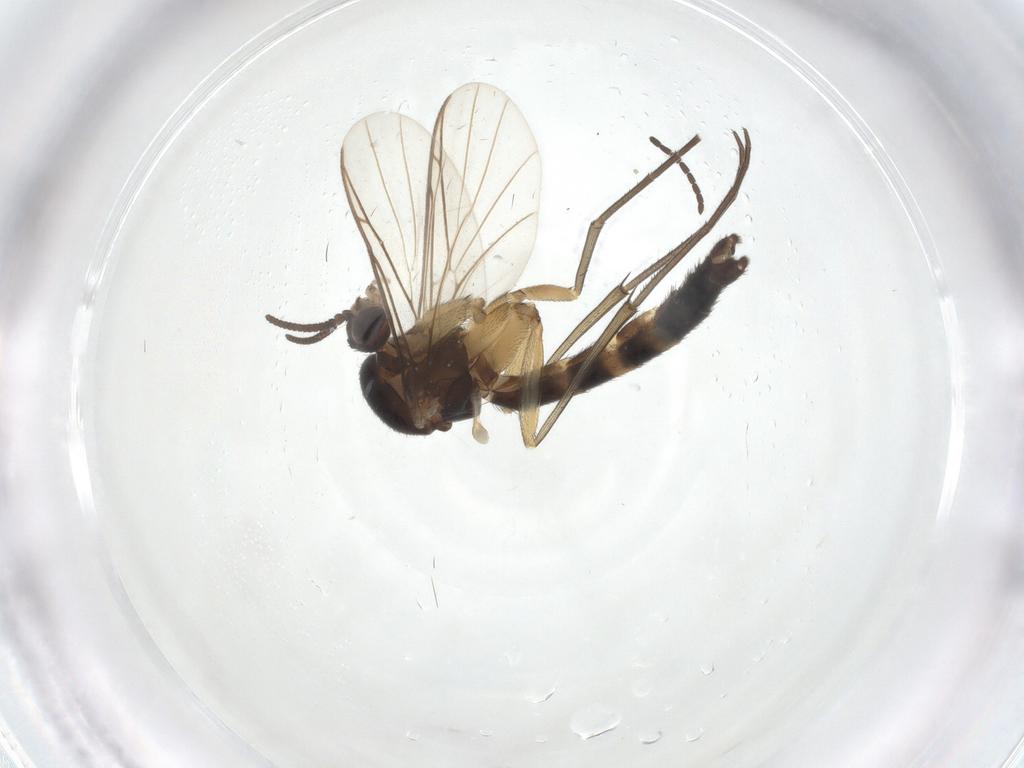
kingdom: Animalia
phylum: Arthropoda
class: Insecta
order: Diptera
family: Keroplatidae
